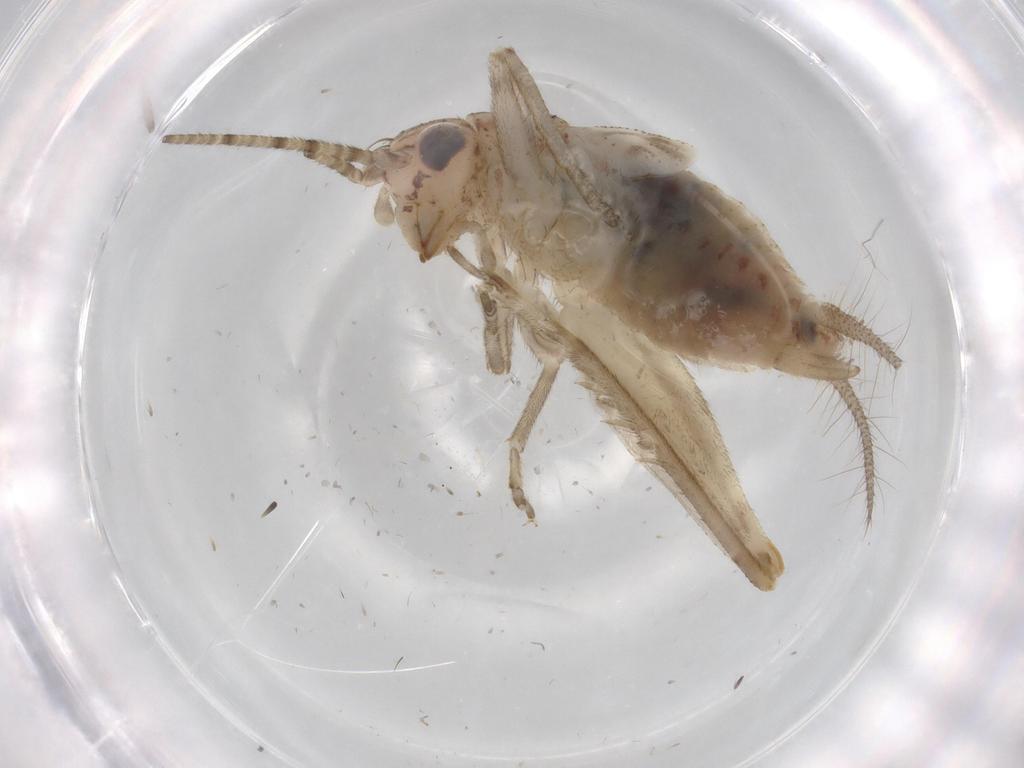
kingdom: Animalia
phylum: Arthropoda
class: Insecta
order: Orthoptera
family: Trigonidiidae
